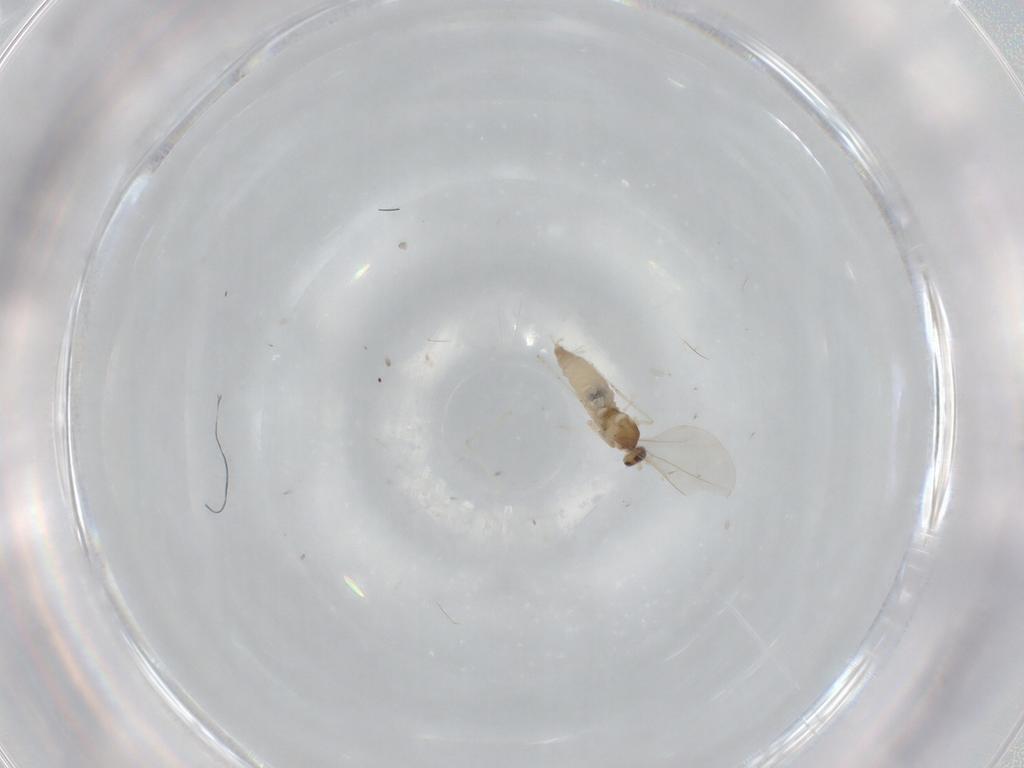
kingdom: Animalia
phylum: Arthropoda
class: Insecta
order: Diptera
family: Cecidomyiidae
